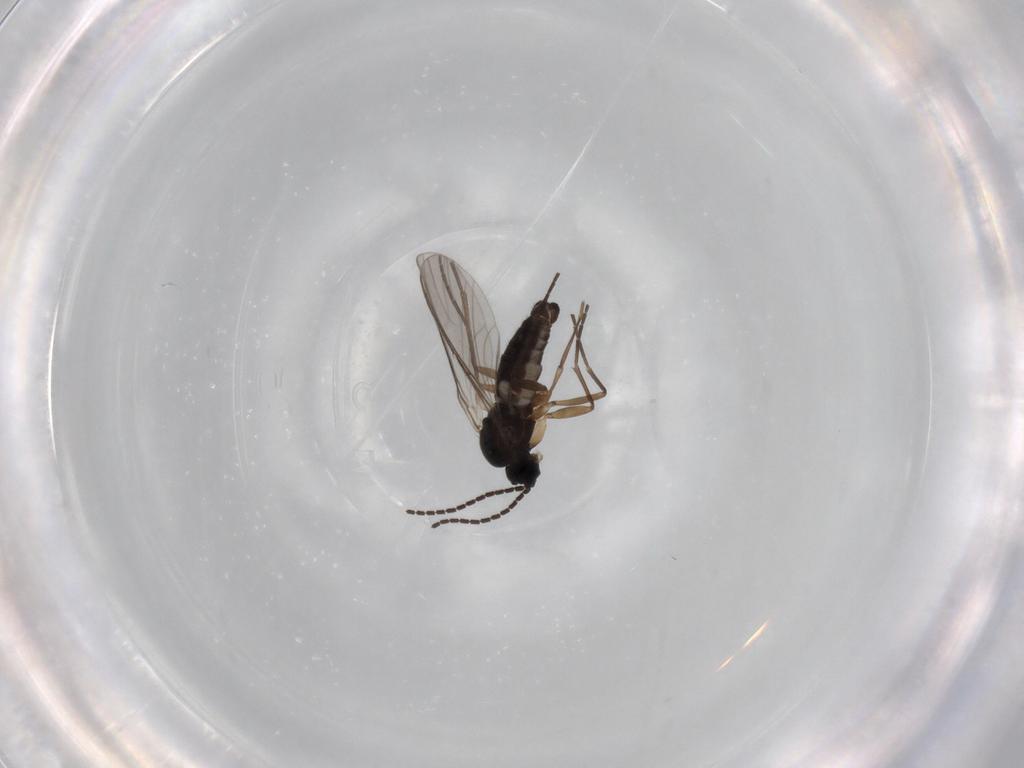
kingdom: Animalia
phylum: Arthropoda
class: Insecta
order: Diptera
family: Sciaridae
